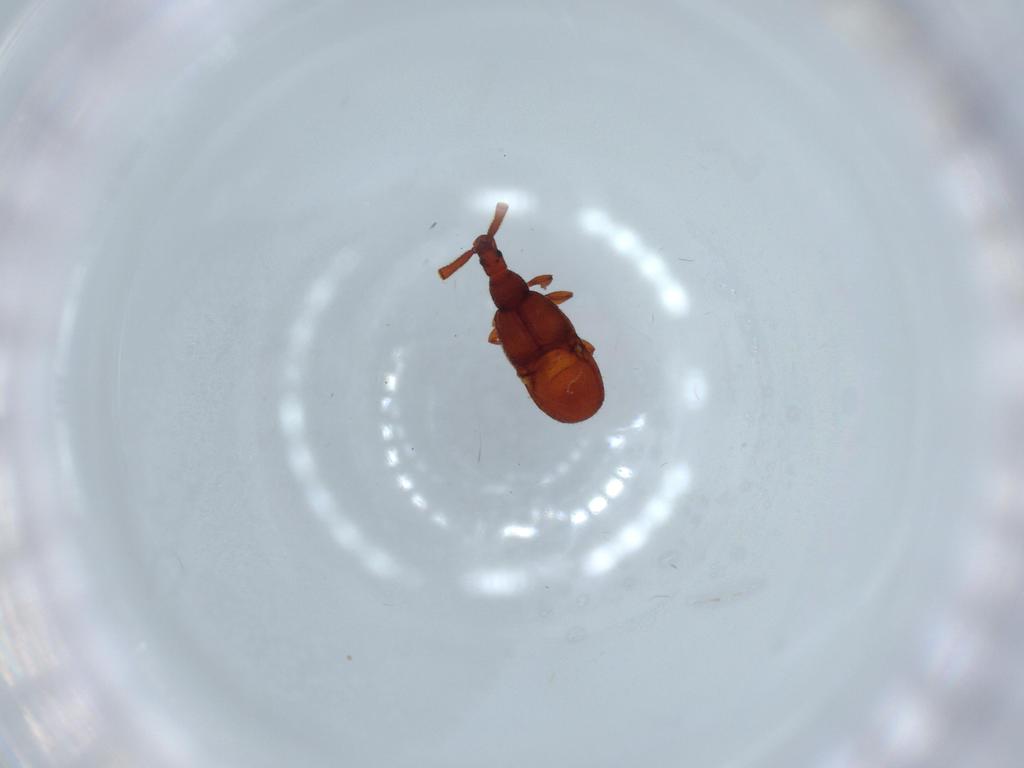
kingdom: Animalia
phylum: Arthropoda
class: Insecta
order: Coleoptera
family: Staphylinidae
